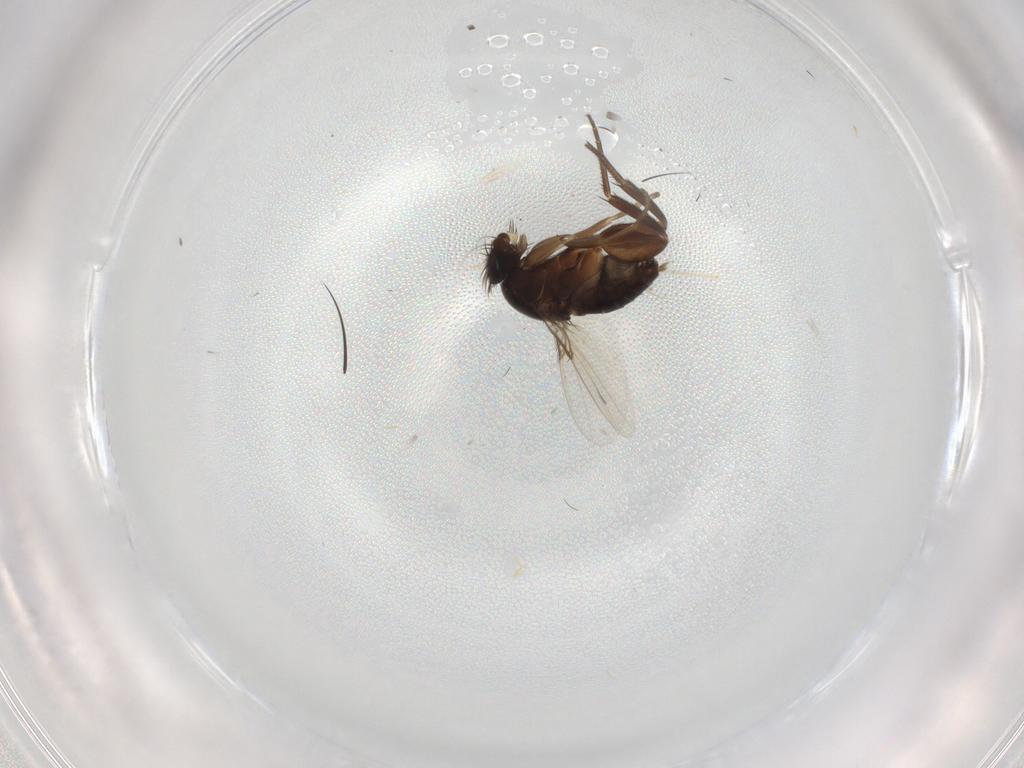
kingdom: Animalia
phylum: Arthropoda
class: Insecta
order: Diptera
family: Phoridae
